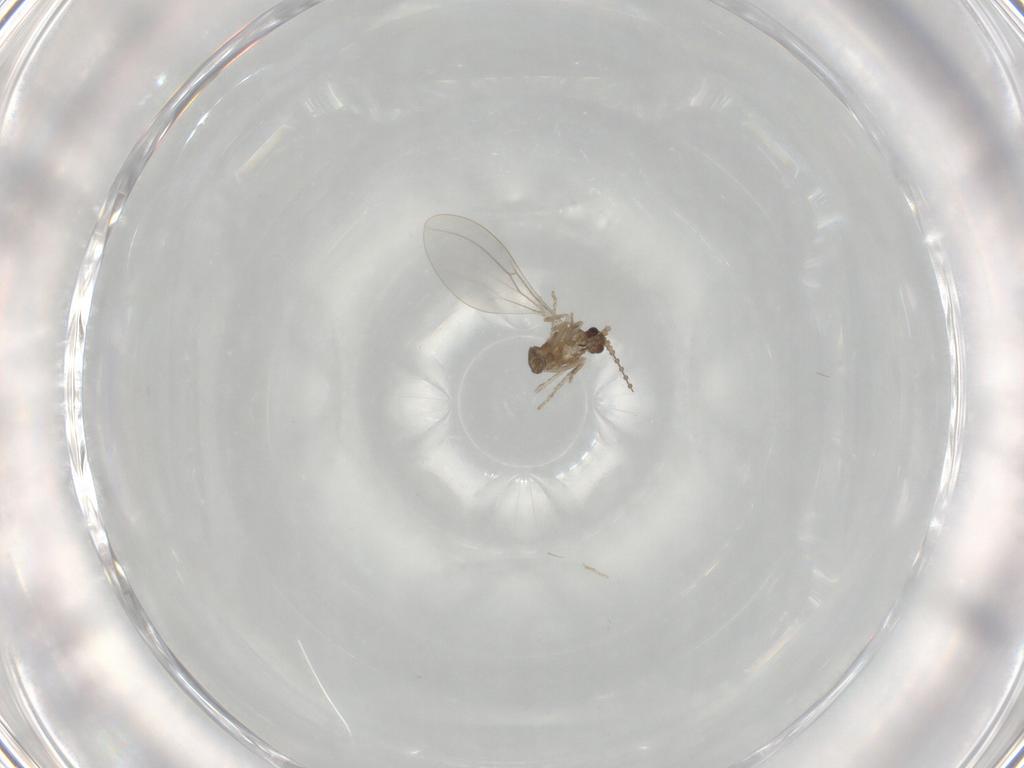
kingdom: Animalia
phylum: Arthropoda
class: Insecta
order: Diptera
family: Cecidomyiidae
